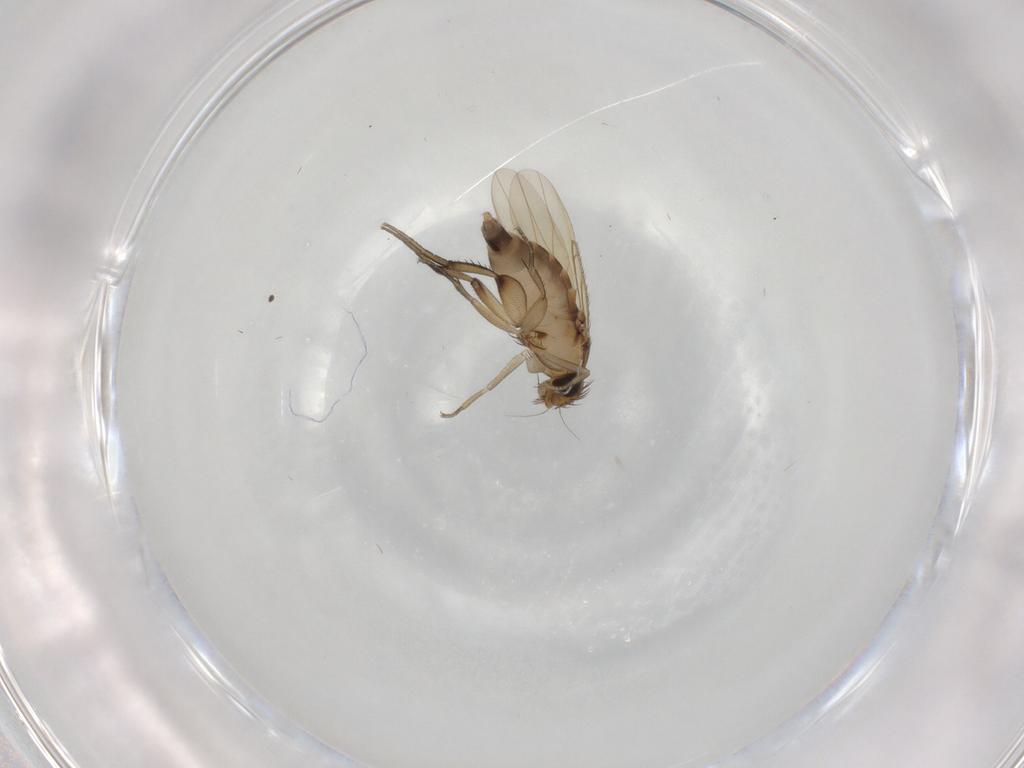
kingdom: Animalia
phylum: Arthropoda
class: Insecta
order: Diptera
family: Phoridae
